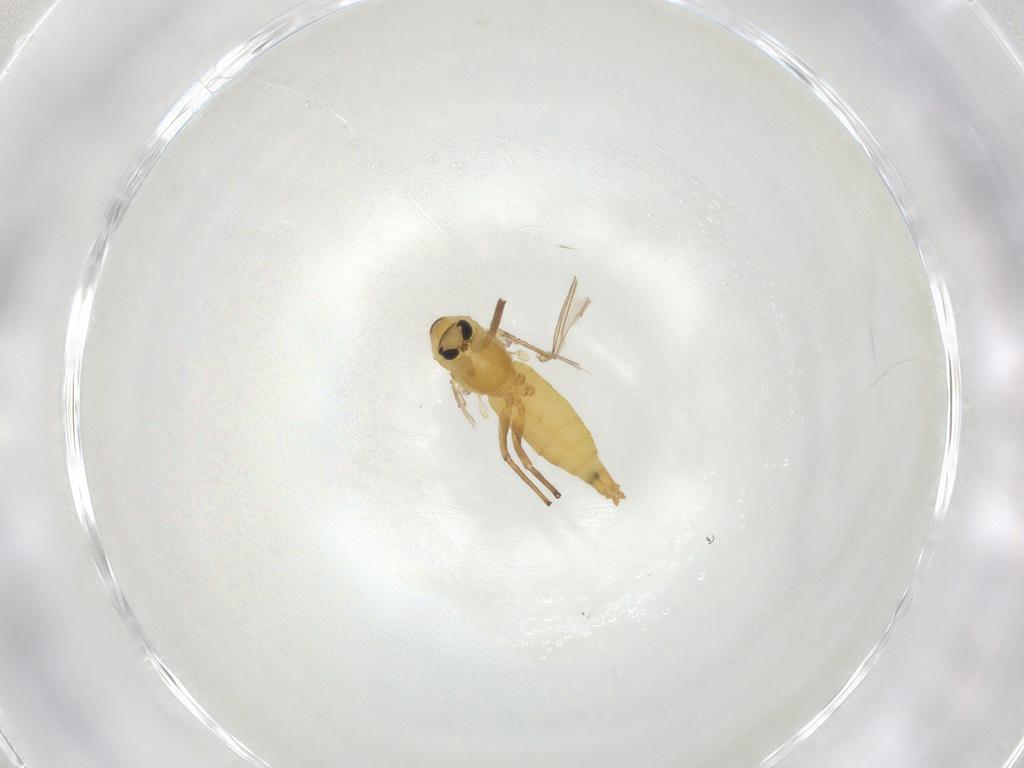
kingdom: Animalia
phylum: Arthropoda
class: Insecta
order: Diptera
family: Chironomidae
